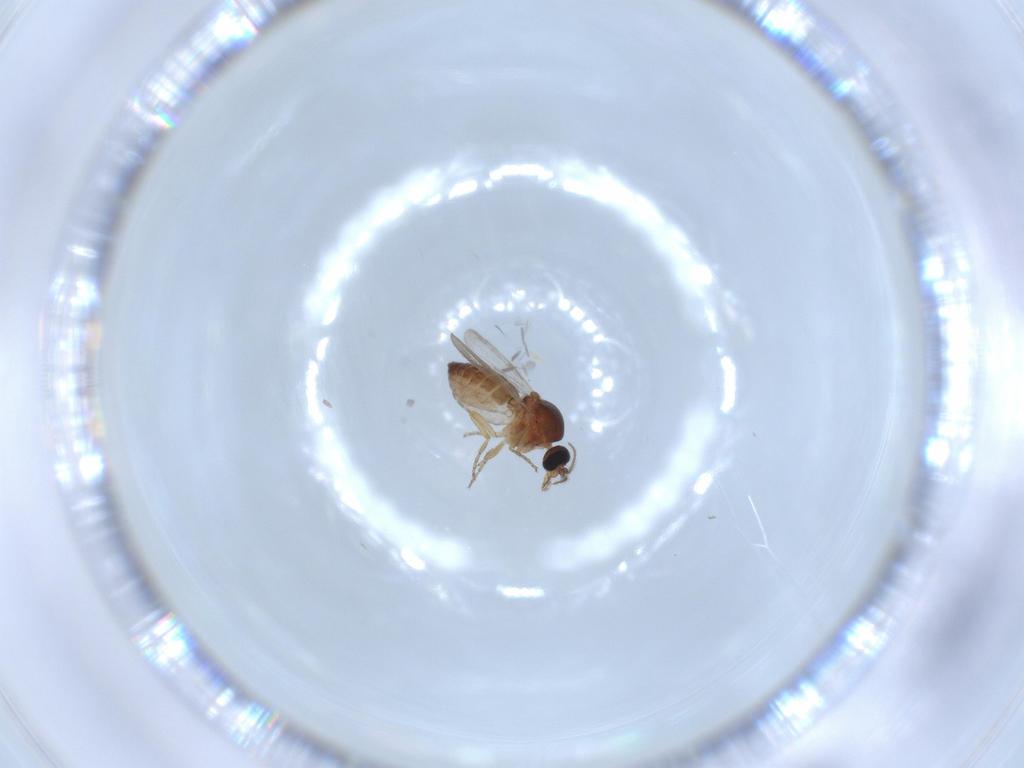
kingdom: Animalia
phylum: Arthropoda
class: Insecta
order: Diptera
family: Ceratopogonidae
